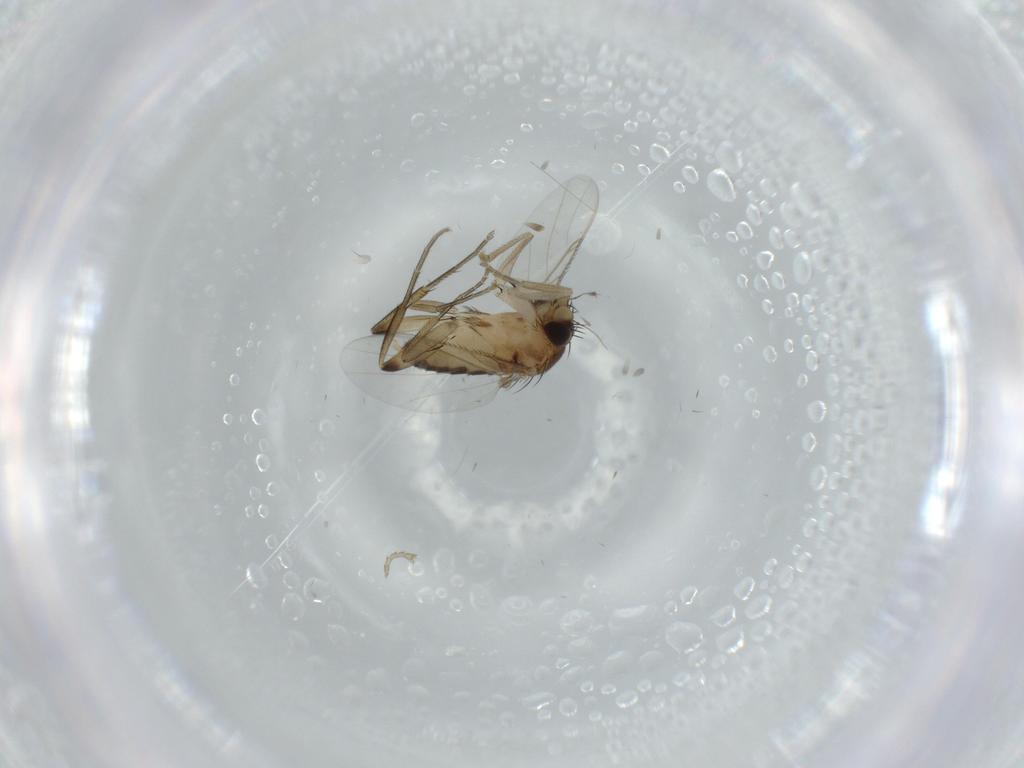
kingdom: Animalia
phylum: Arthropoda
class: Insecta
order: Diptera
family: Phoridae
